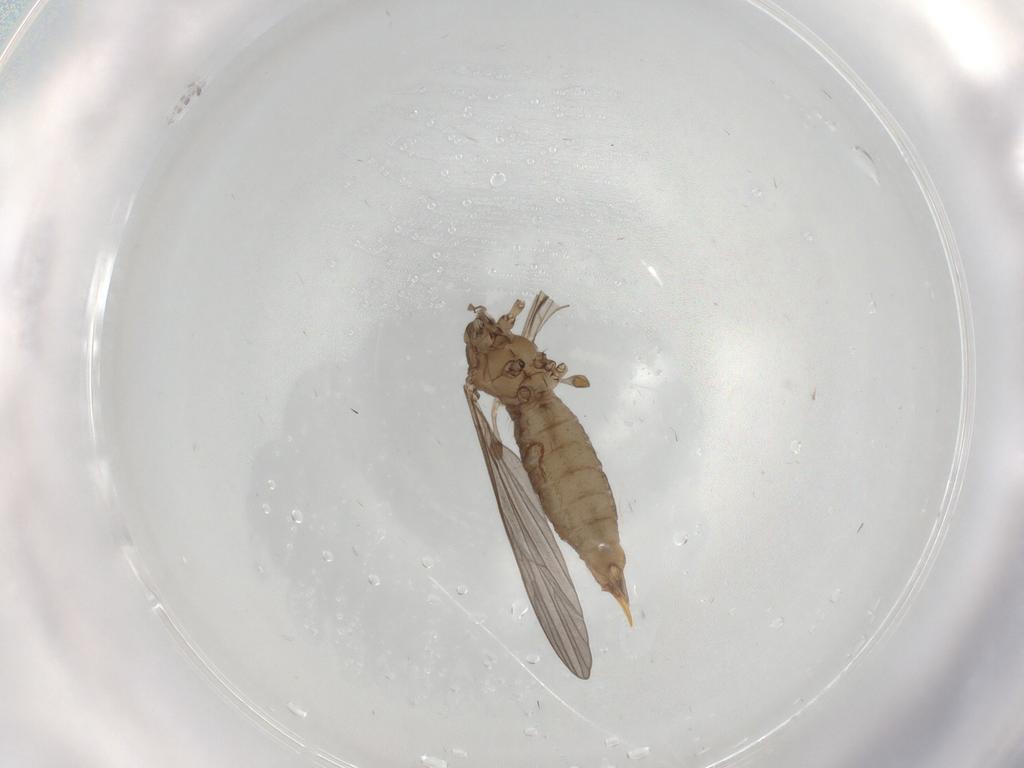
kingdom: Animalia
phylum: Arthropoda
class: Insecta
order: Diptera
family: Limoniidae
